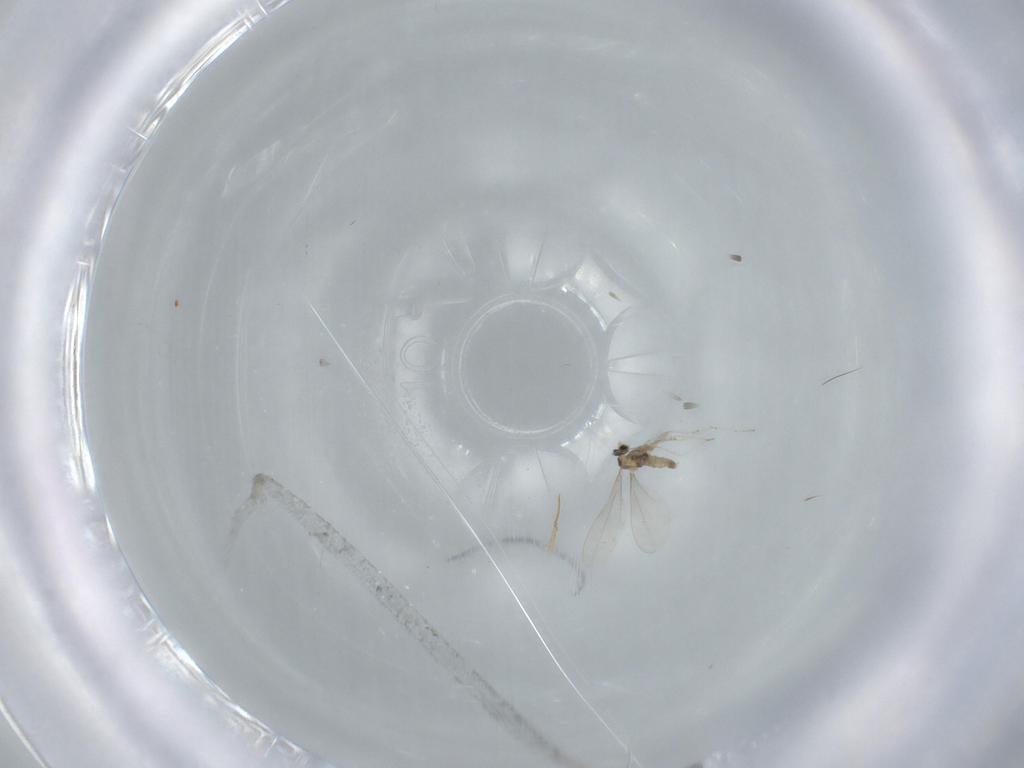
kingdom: Animalia
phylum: Arthropoda
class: Insecta
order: Diptera
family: Cecidomyiidae
